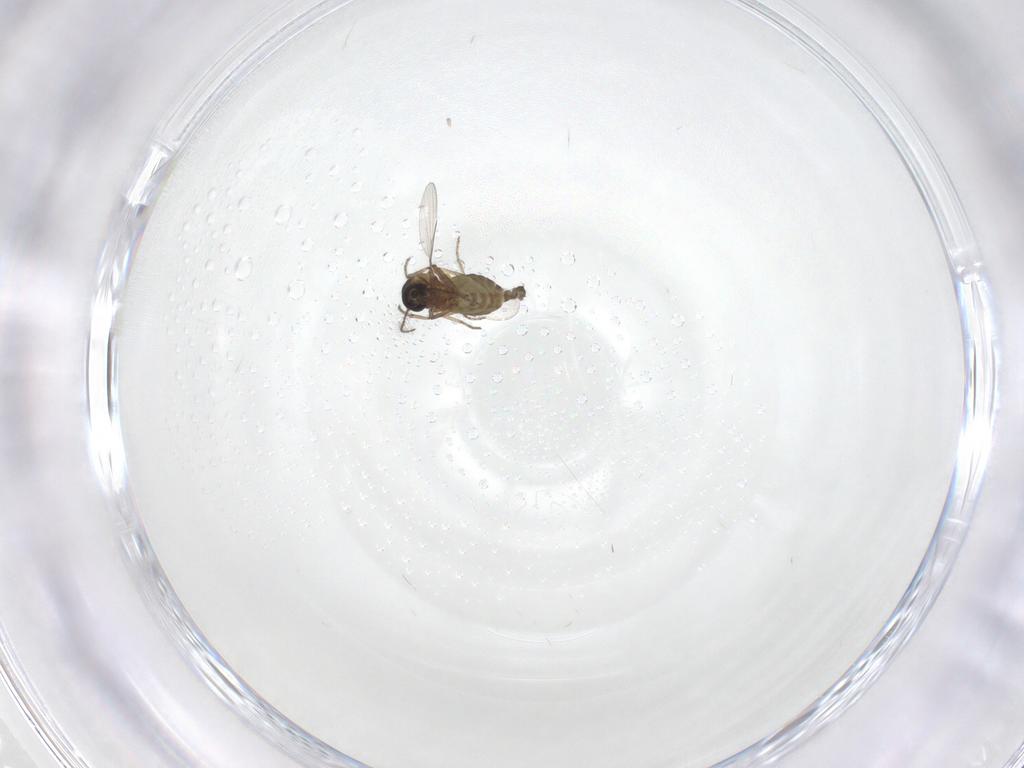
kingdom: Animalia
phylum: Arthropoda
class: Insecta
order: Diptera
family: Ceratopogonidae
